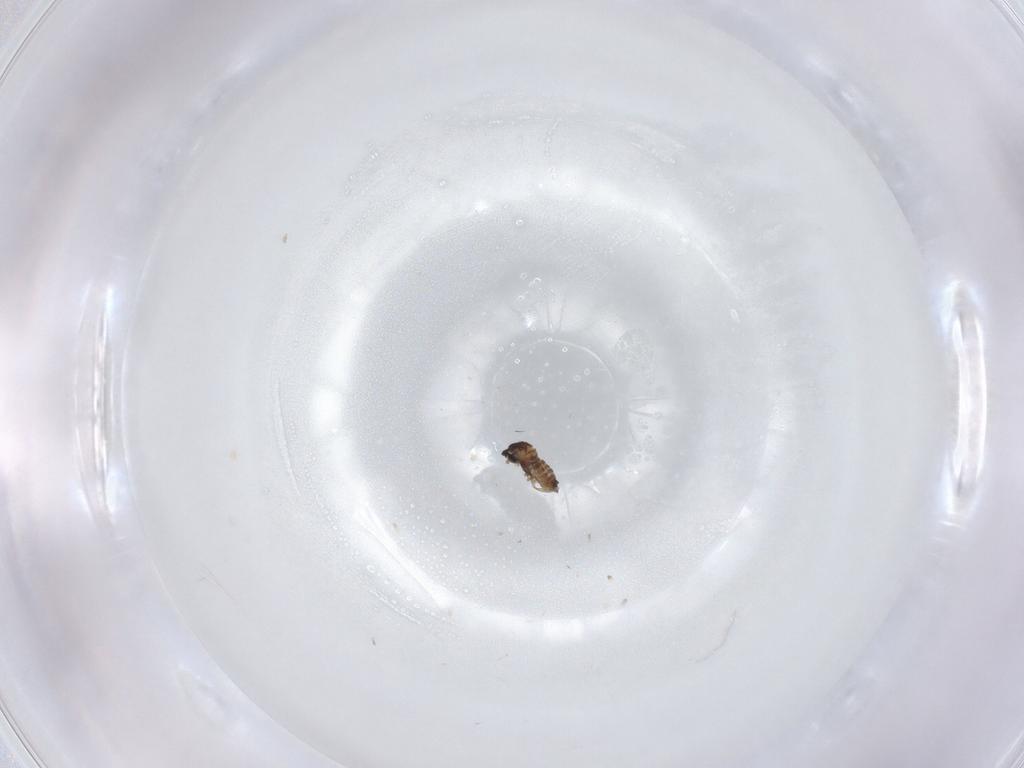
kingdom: Animalia
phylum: Arthropoda
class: Insecta
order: Diptera
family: Cecidomyiidae
